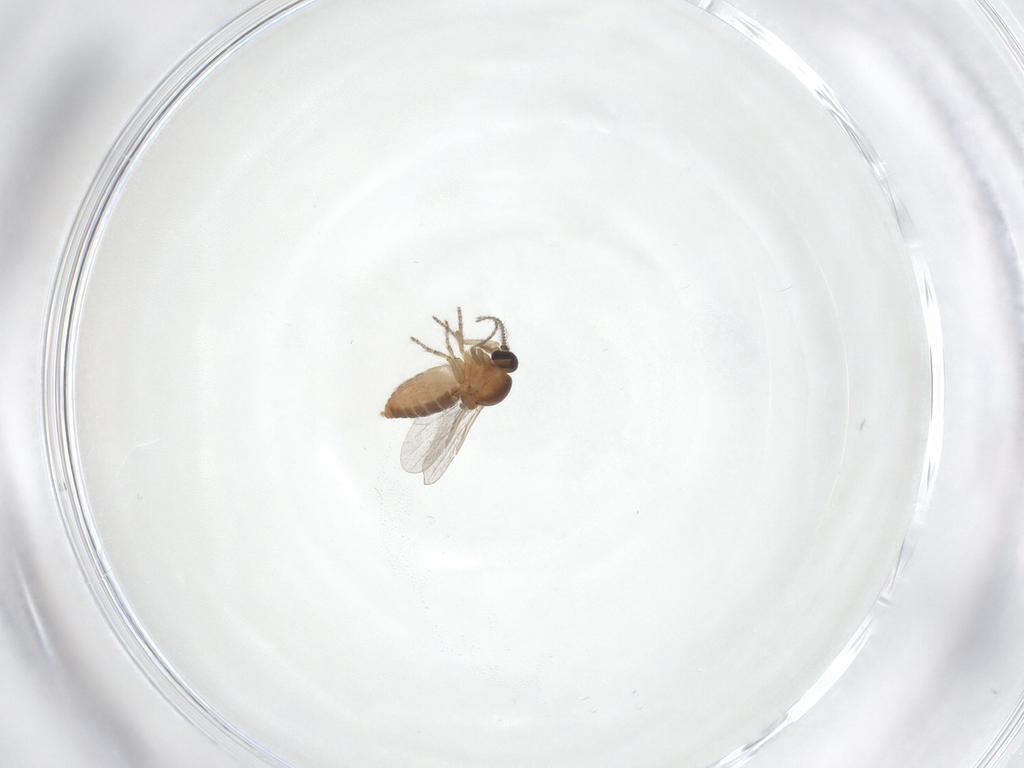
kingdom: Animalia
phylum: Arthropoda
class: Insecta
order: Diptera
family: Ceratopogonidae
